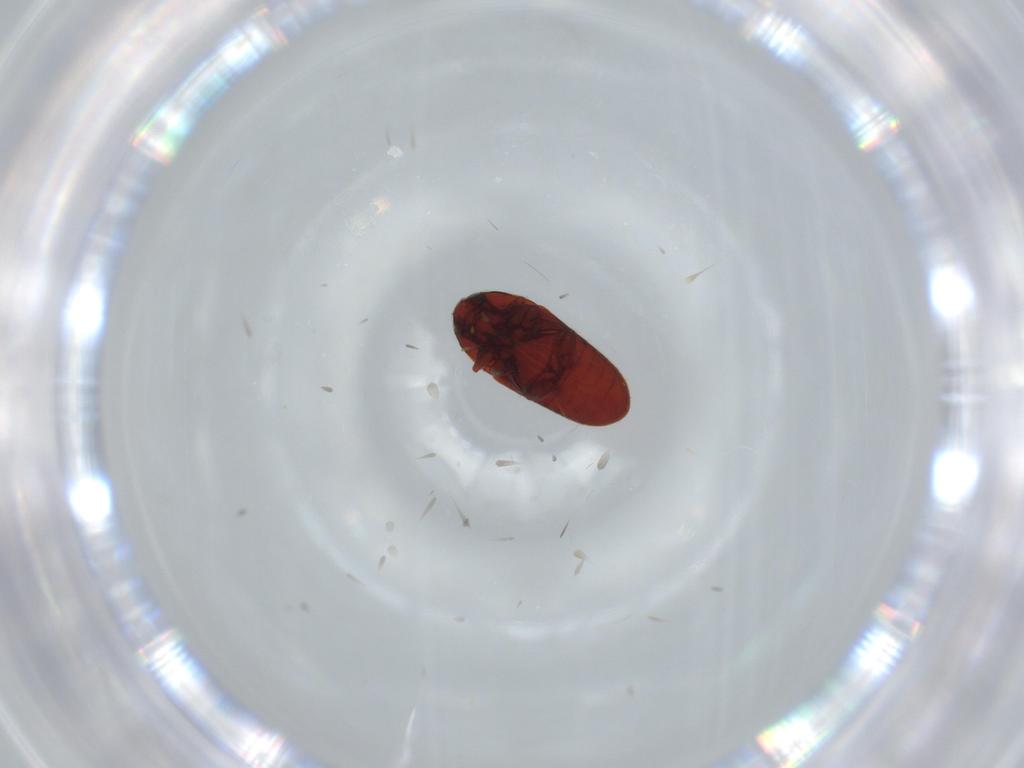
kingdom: Animalia
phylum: Arthropoda
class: Insecta
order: Coleoptera
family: Throscidae
